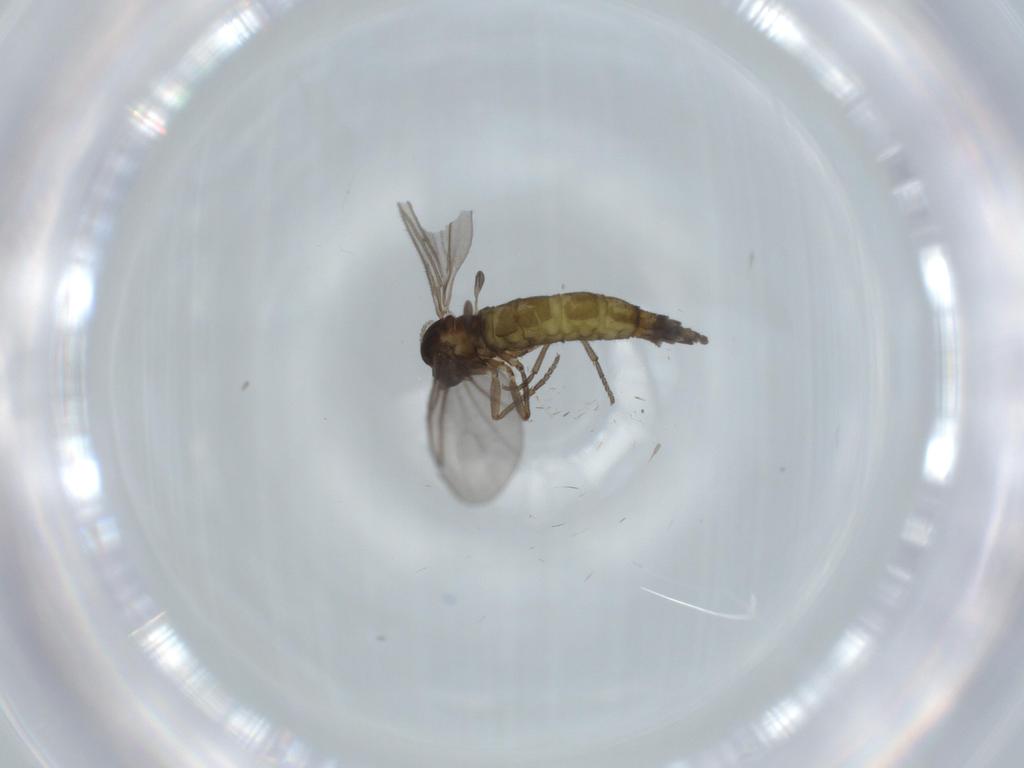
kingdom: Animalia
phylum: Arthropoda
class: Insecta
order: Diptera
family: Sciaridae
